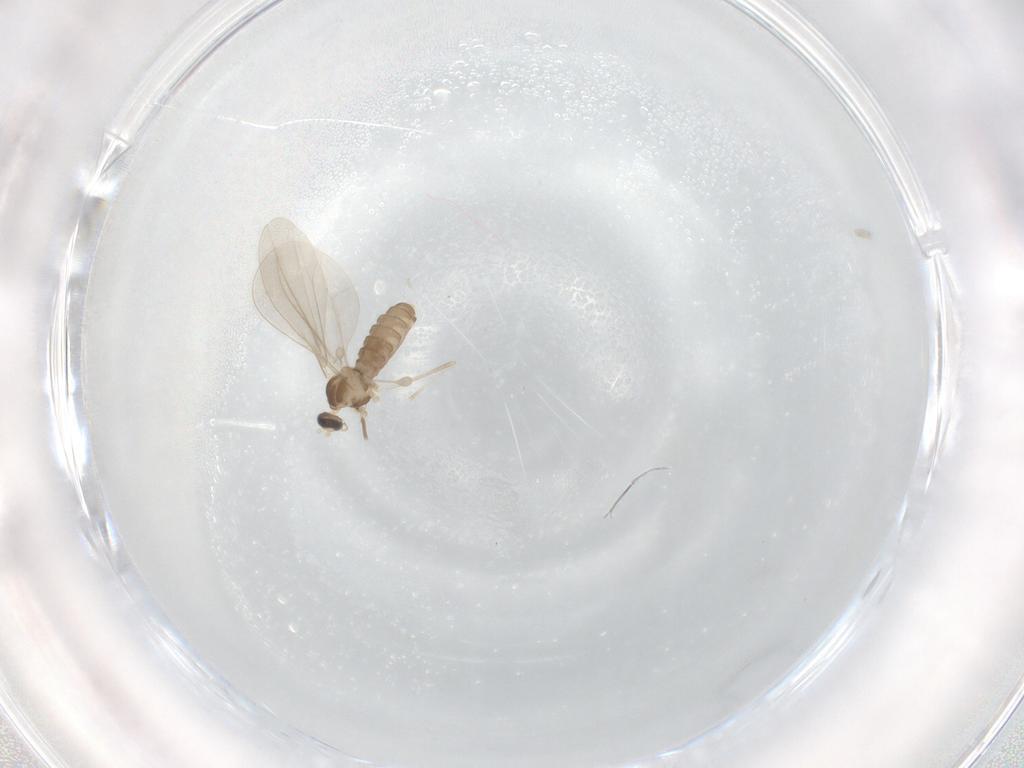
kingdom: Animalia
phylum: Arthropoda
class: Insecta
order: Diptera
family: Cecidomyiidae
